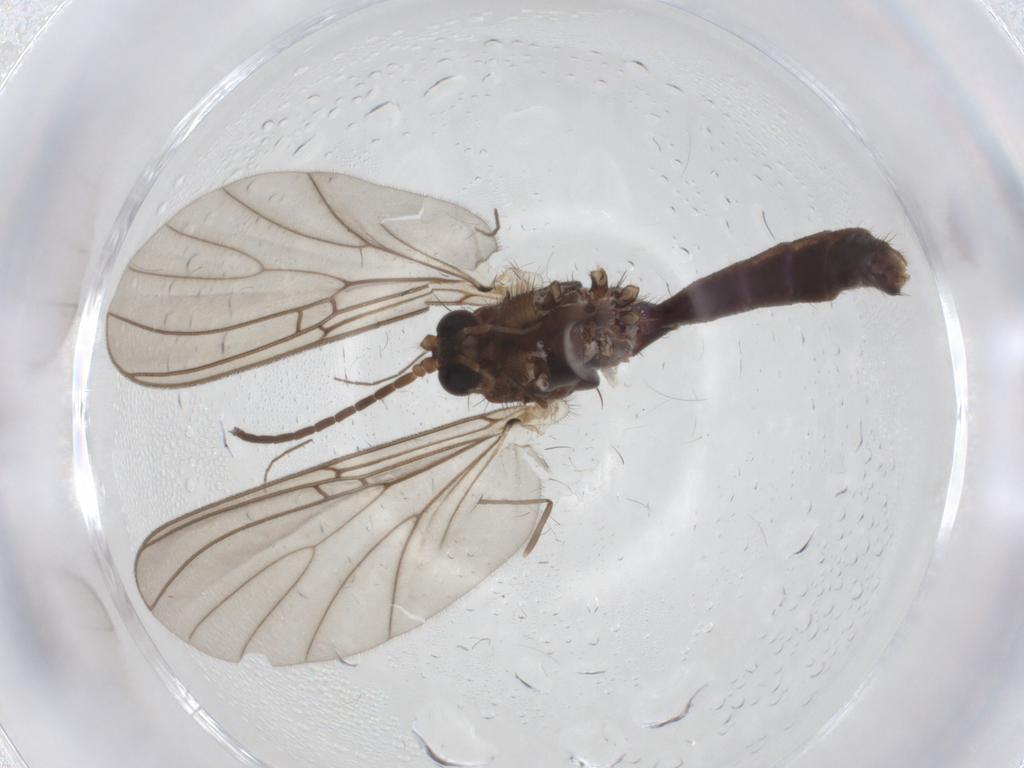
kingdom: Animalia
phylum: Arthropoda
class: Insecta
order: Diptera
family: Mycetophilidae
